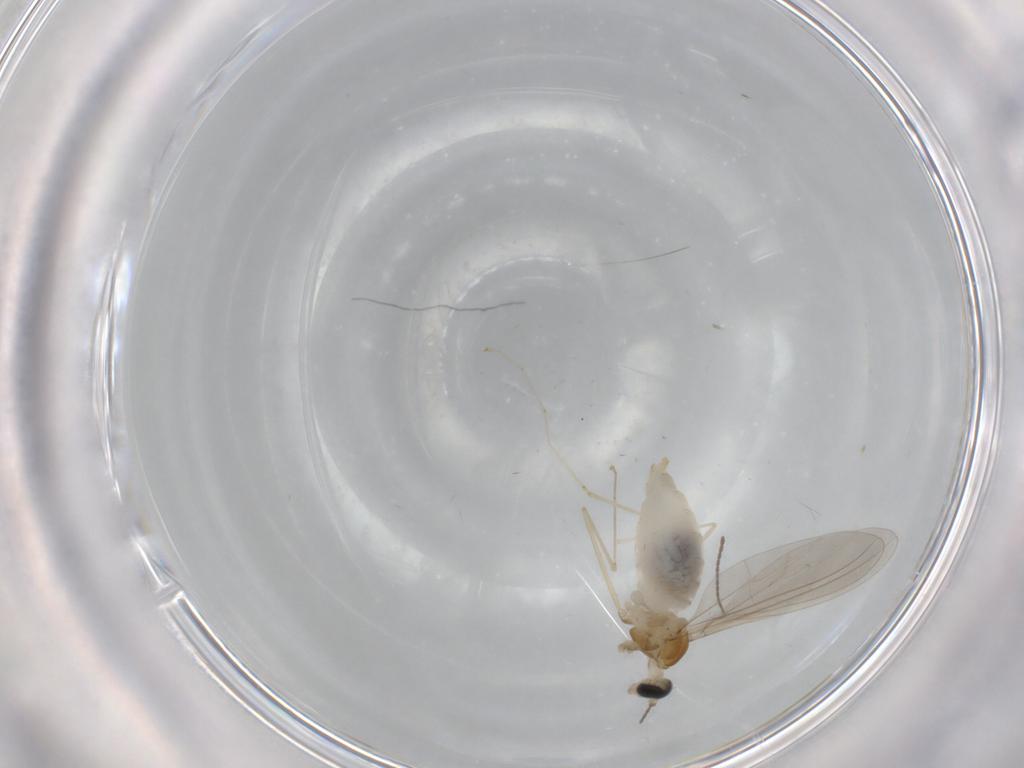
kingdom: Animalia
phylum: Arthropoda
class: Insecta
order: Diptera
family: Cecidomyiidae
